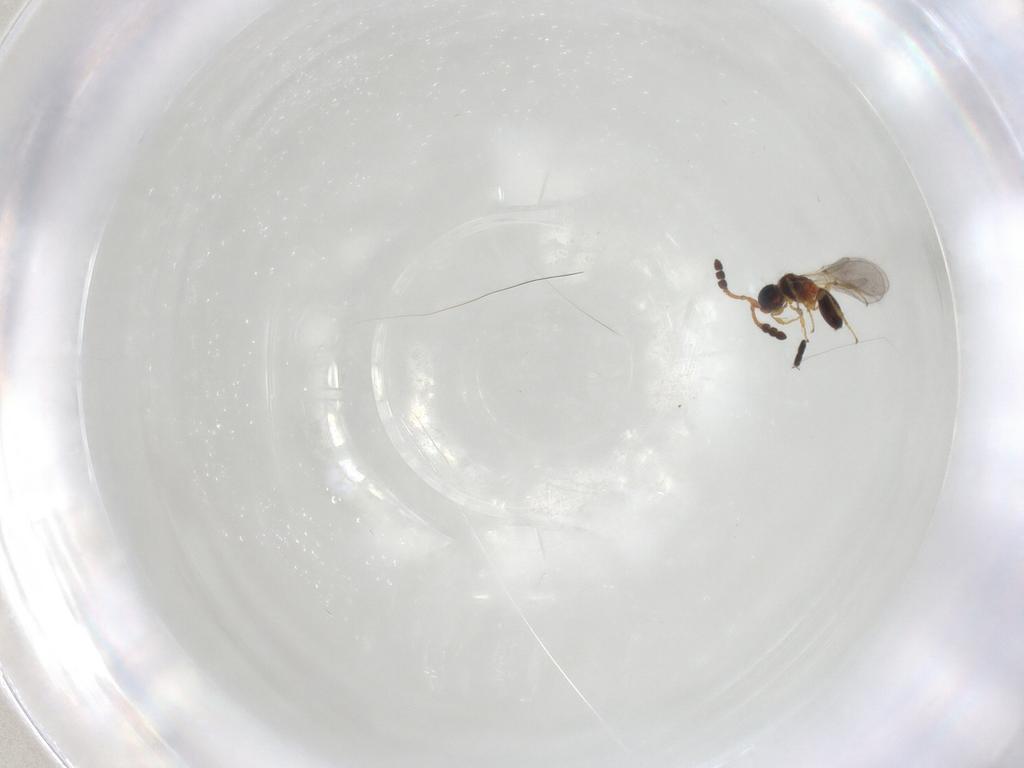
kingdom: Animalia
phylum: Arthropoda
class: Insecta
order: Hymenoptera
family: Diapriidae
